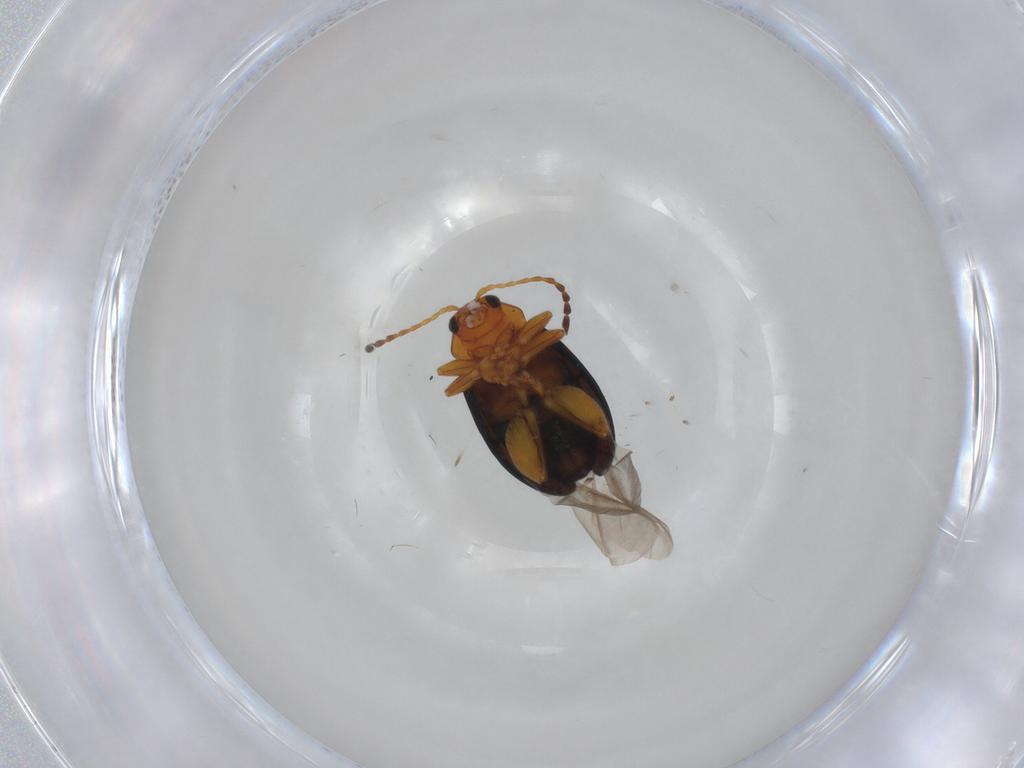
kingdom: Animalia
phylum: Arthropoda
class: Insecta
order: Coleoptera
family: Chrysomelidae
